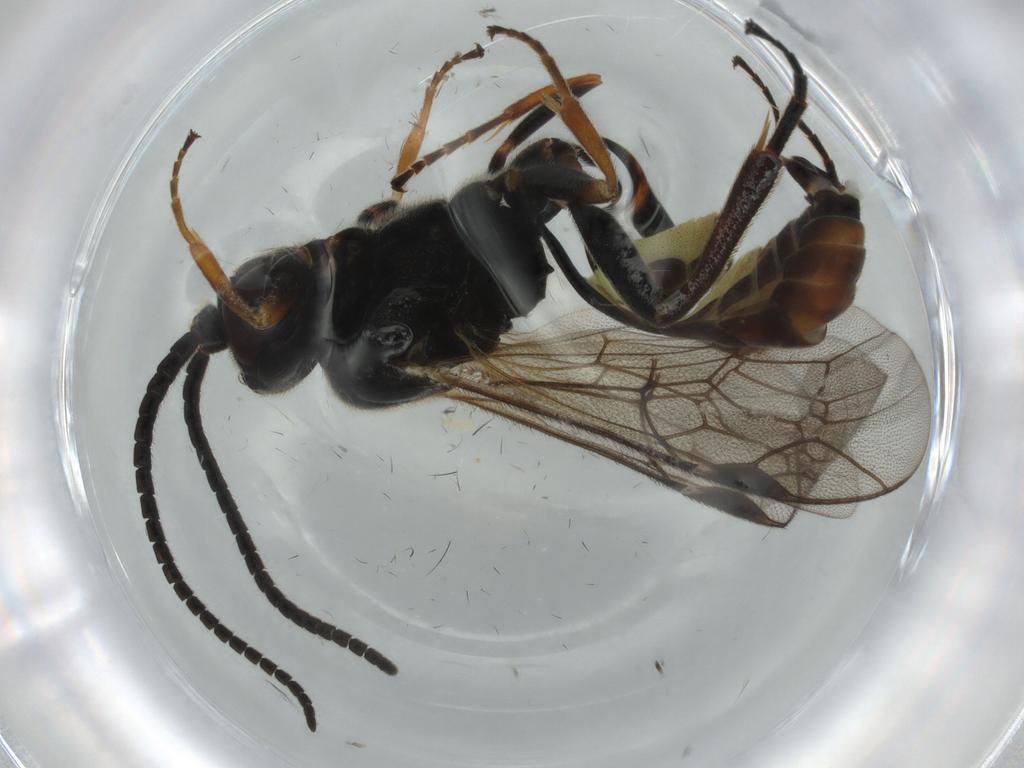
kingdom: Animalia
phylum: Arthropoda
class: Insecta
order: Hymenoptera
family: Ichneumonidae
